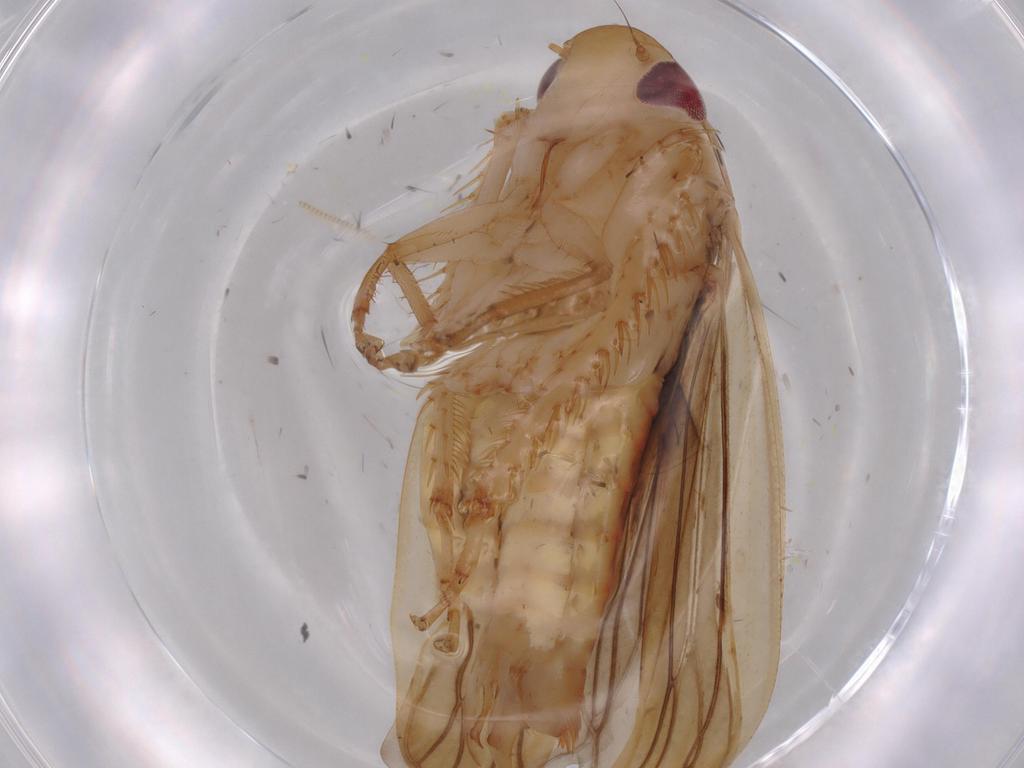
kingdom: Animalia
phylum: Arthropoda
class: Insecta
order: Hemiptera
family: Cicadellidae
